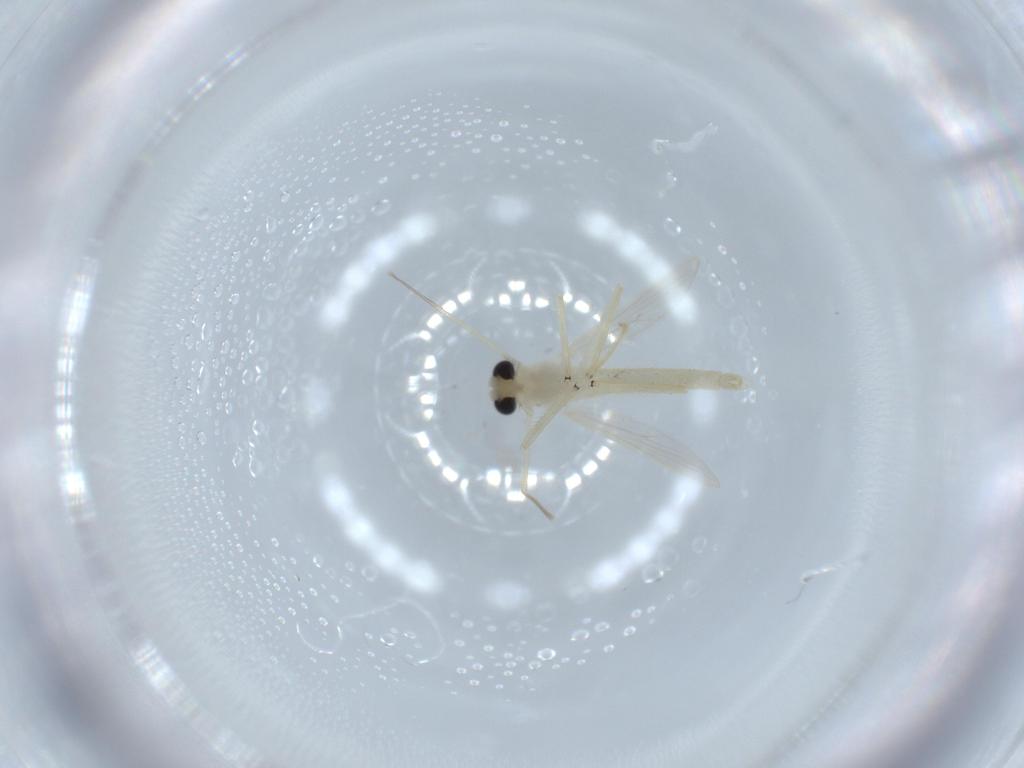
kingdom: Animalia
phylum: Arthropoda
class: Insecta
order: Diptera
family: Chironomidae
